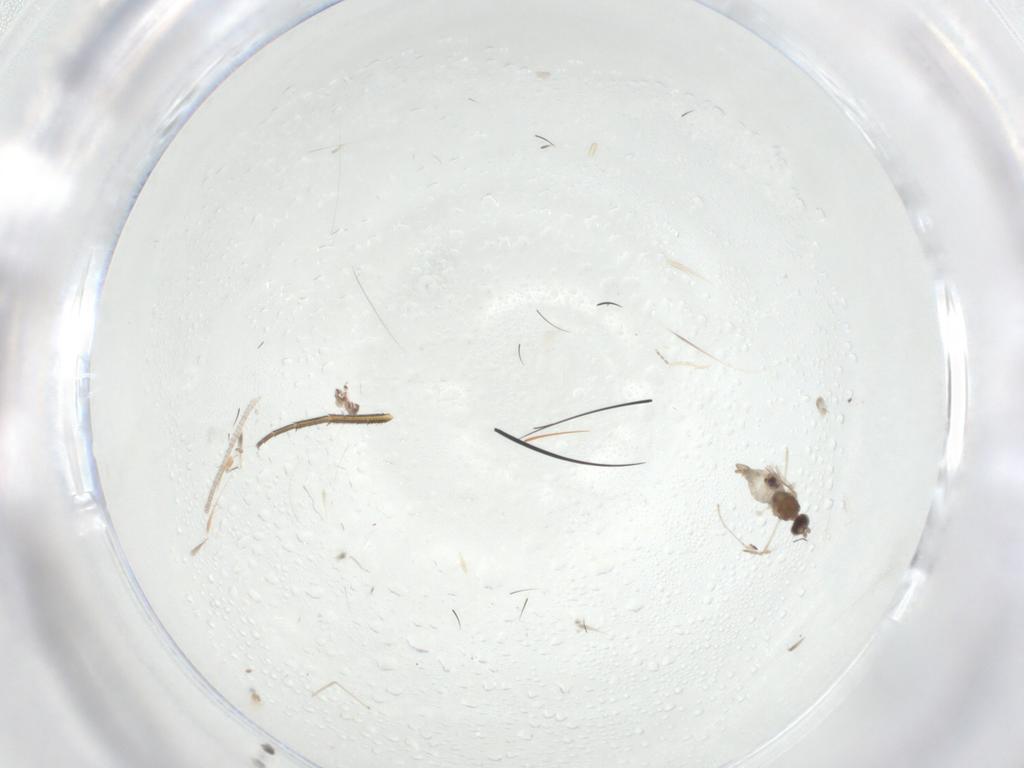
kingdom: Animalia
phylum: Arthropoda
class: Insecta
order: Diptera
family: Cecidomyiidae
